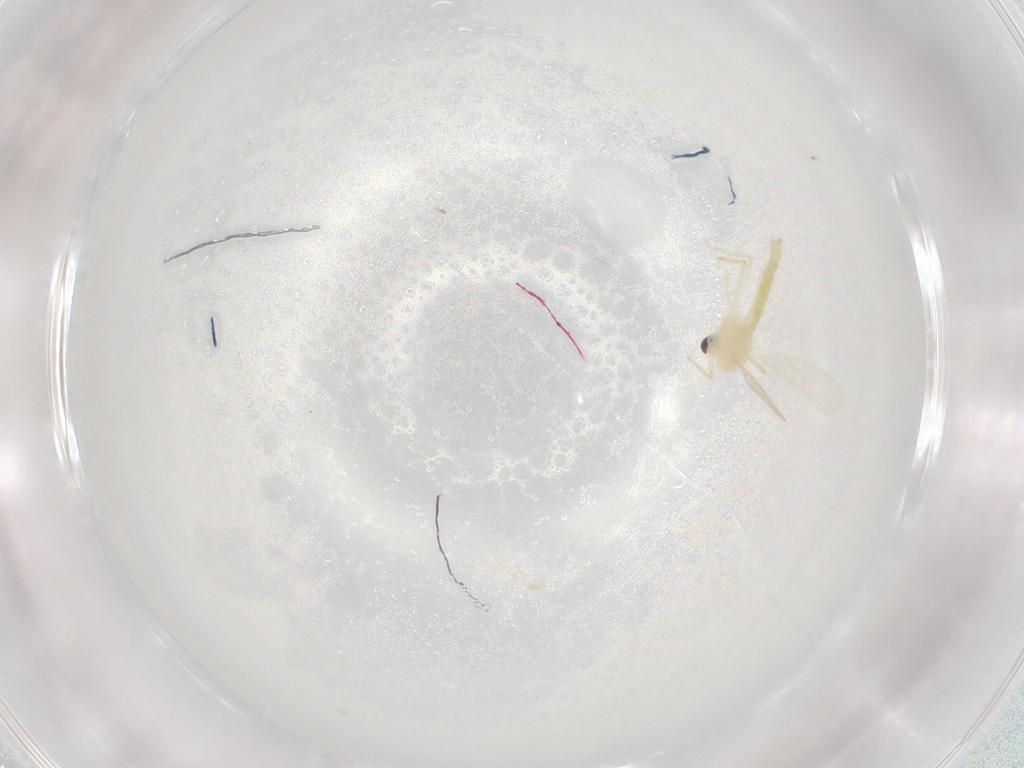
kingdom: Animalia
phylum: Arthropoda
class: Insecta
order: Diptera
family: Chironomidae
